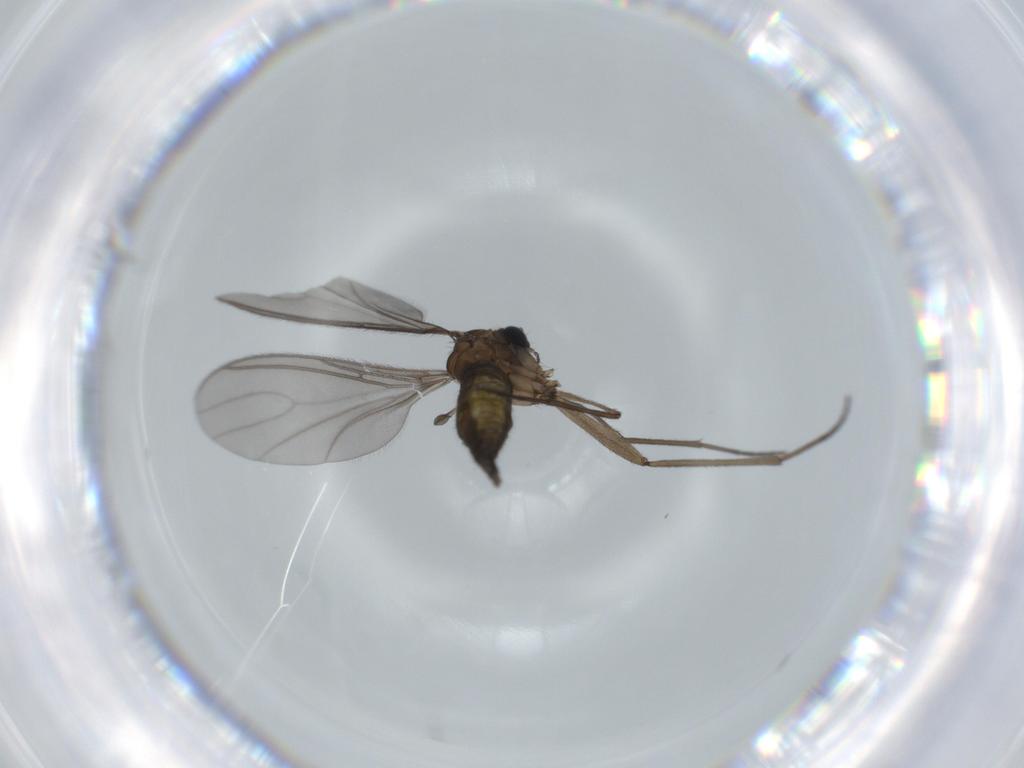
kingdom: Animalia
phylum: Arthropoda
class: Insecta
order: Diptera
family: Sciaridae
